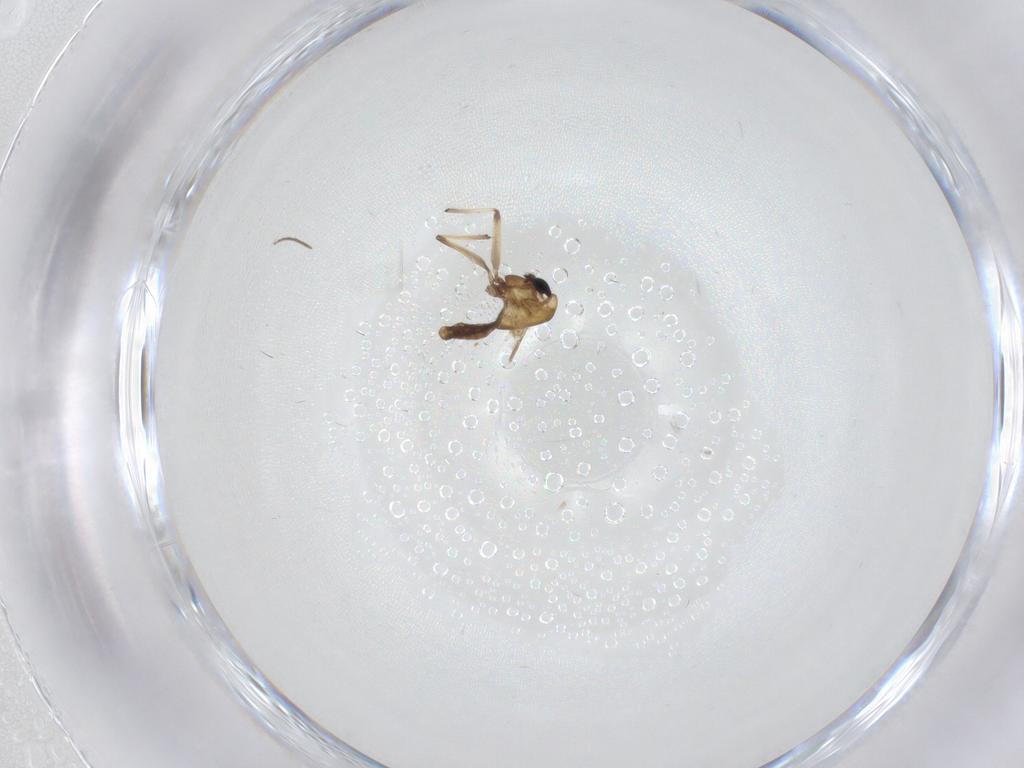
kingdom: Animalia
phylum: Arthropoda
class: Insecta
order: Diptera
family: Chironomidae
